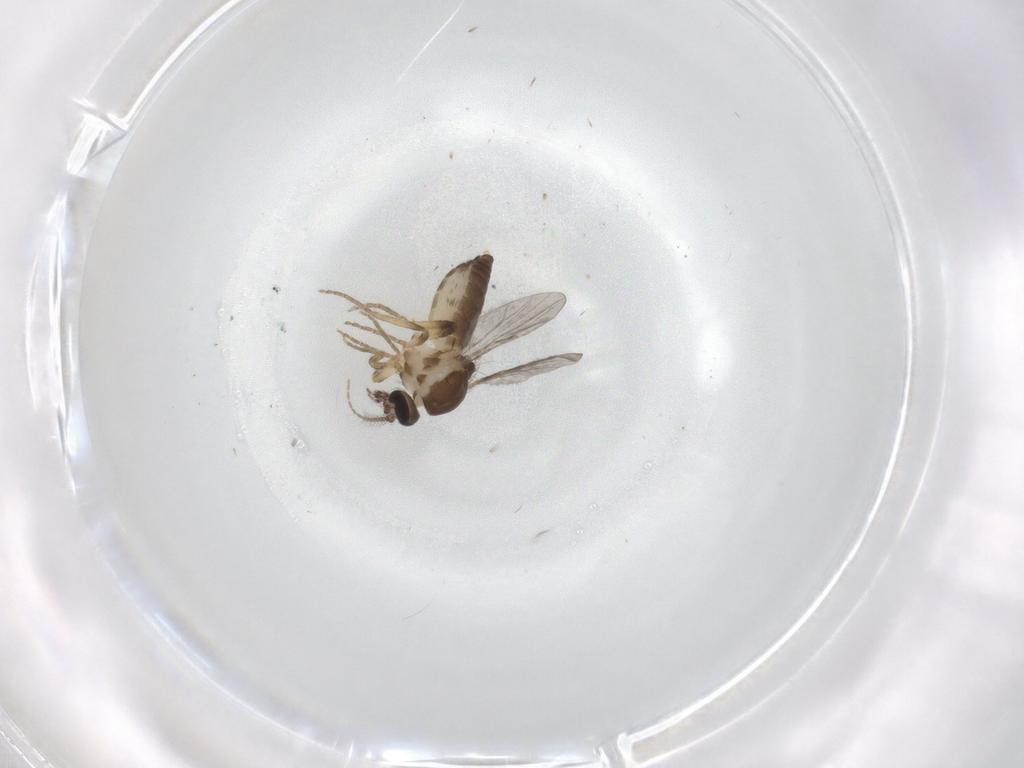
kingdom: Animalia
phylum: Arthropoda
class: Insecta
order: Diptera
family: Ceratopogonidae
